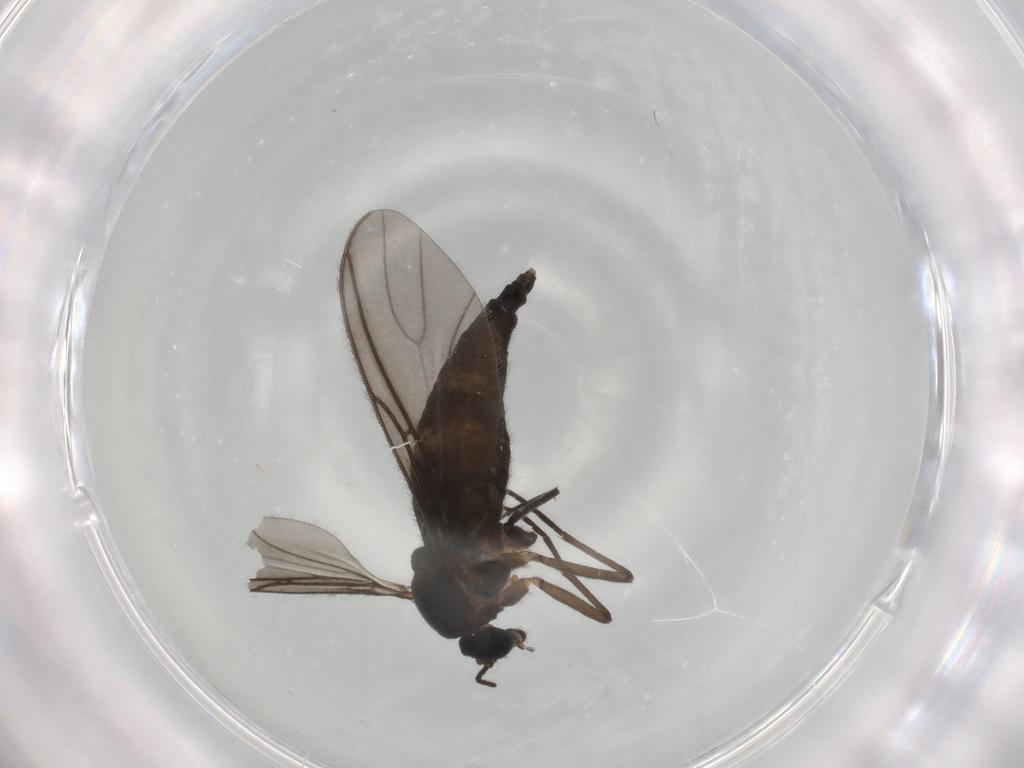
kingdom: Animalia
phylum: Arthropoda
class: Insecta
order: Diptera
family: Sciaridae
